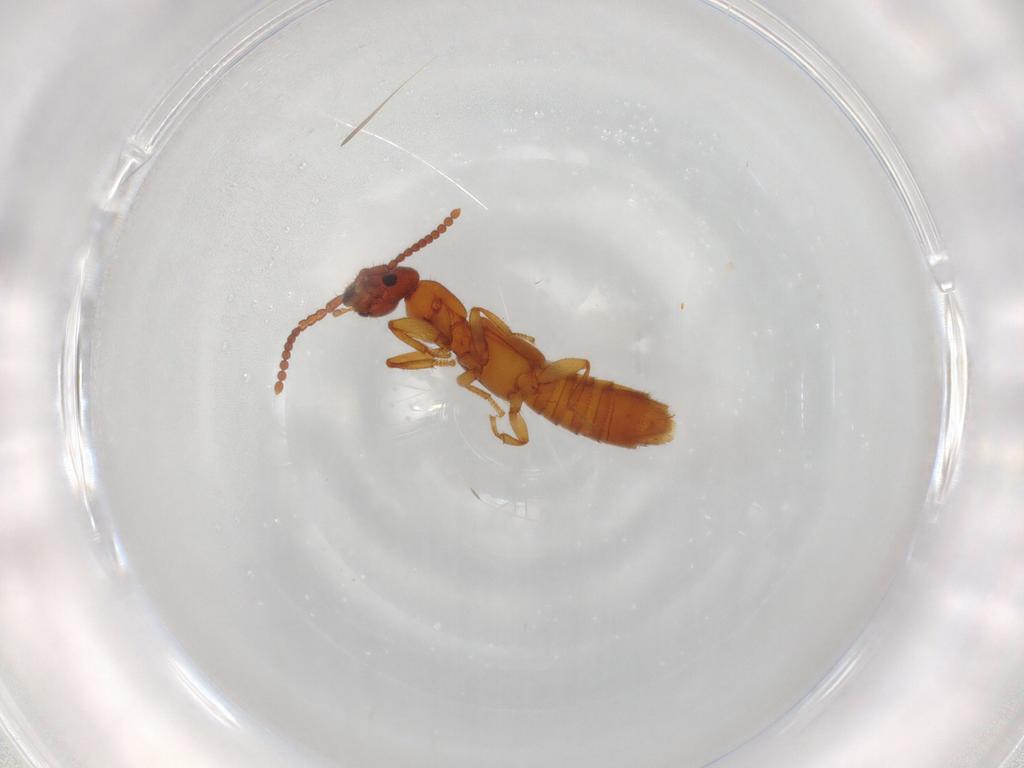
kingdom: Animalia
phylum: Arthropoda
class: Insecta
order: Coleoptera
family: Staphylinidae
